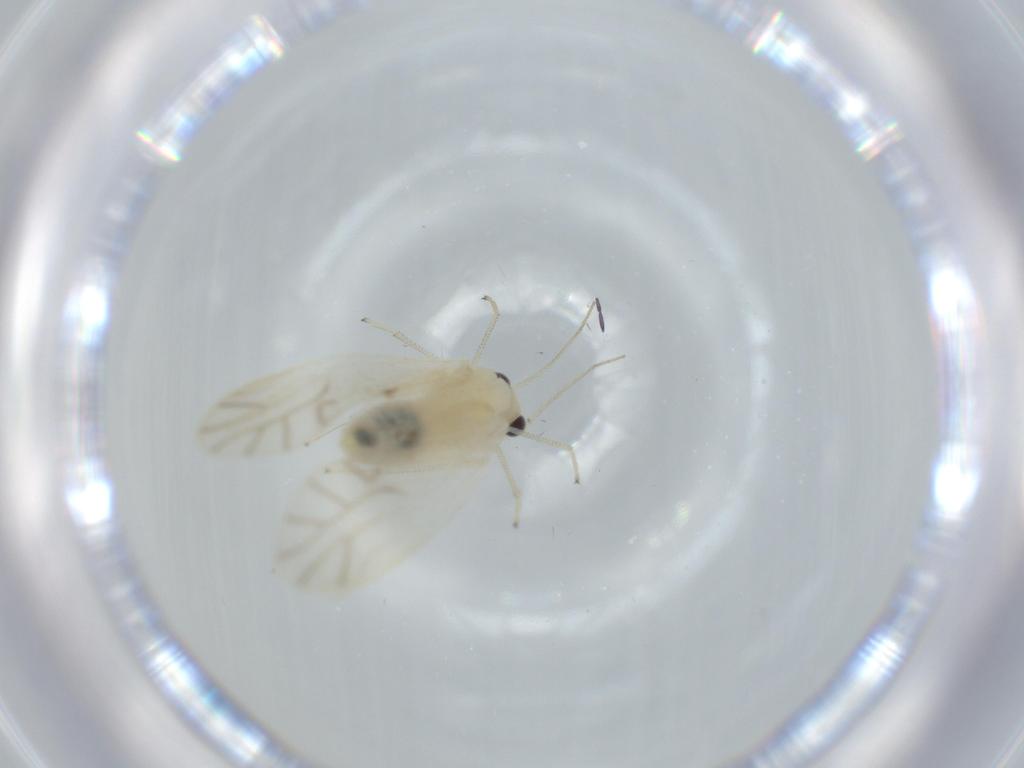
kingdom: Animalia
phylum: Arthropoda
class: Insecta
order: Psocodea
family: Caeciliusidae
